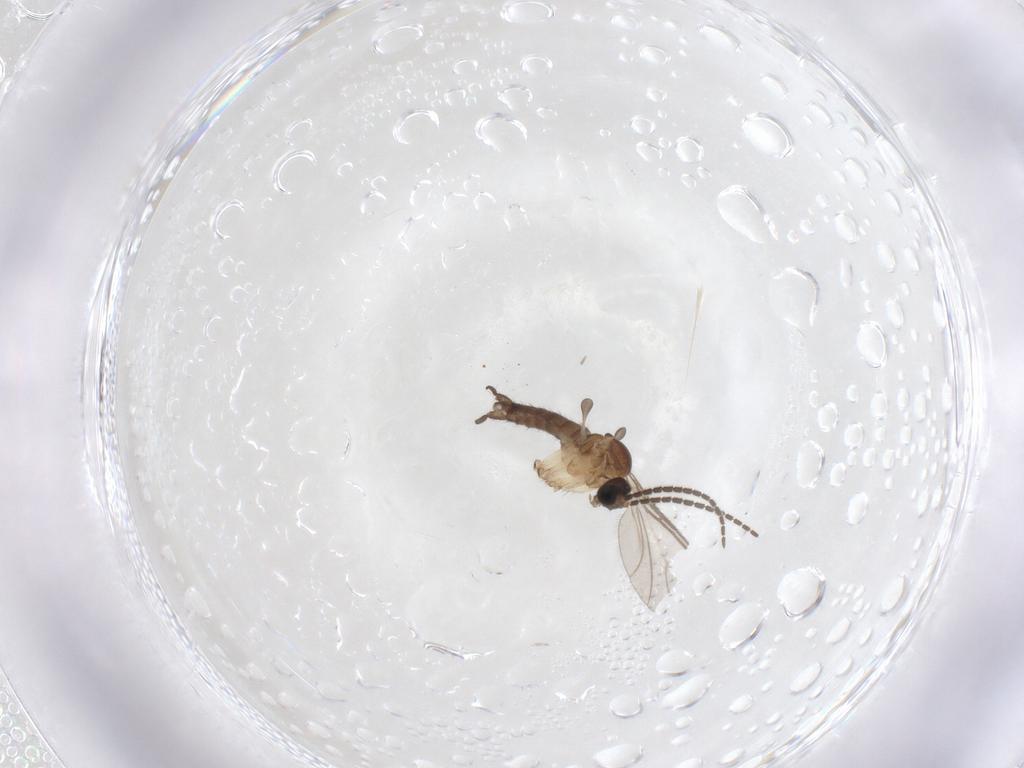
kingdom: Animalia
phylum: Arthropoda
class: Insecta
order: Diptera
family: Sciaridae
